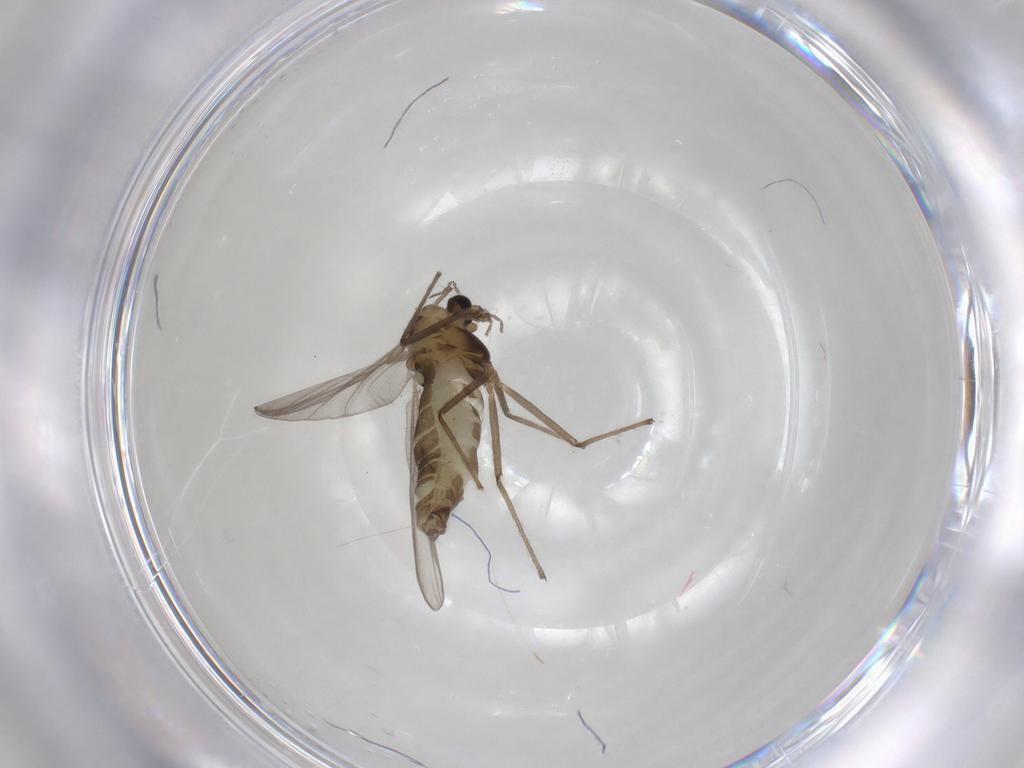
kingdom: Animalia
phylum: Arthropoda
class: Insecta
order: Diptera
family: Chironomidae
